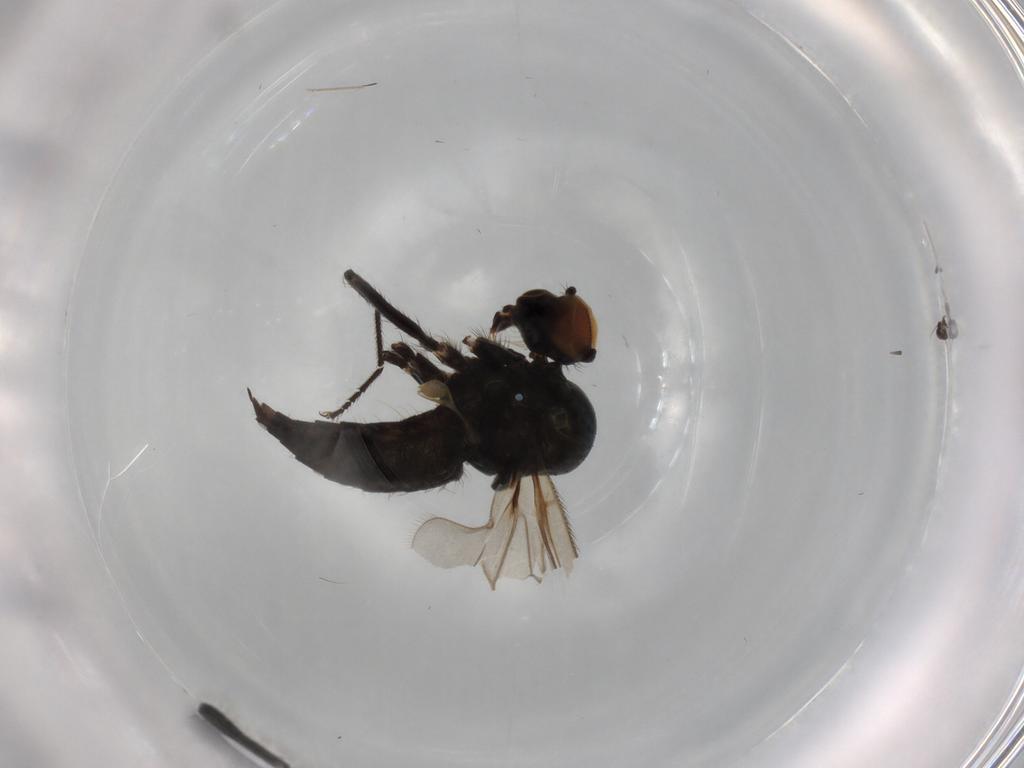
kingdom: Animalia
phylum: Arthropoda
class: Insecta
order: Diptera
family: Hybotidae
